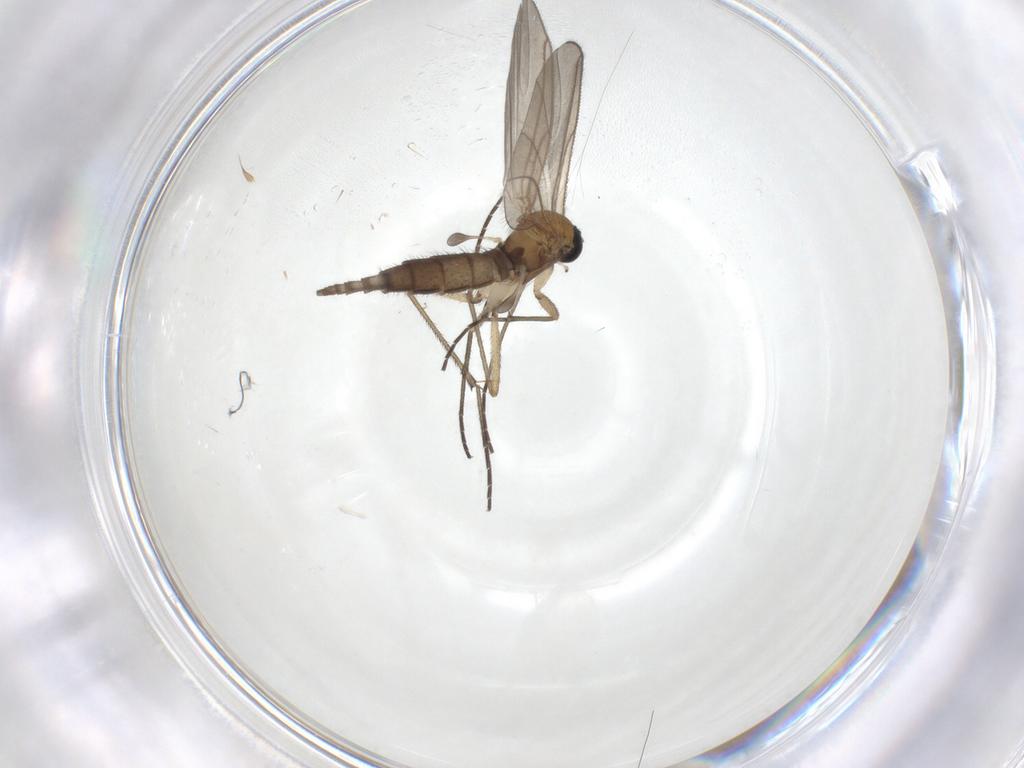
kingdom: Animalia
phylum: Arthropoda
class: Insecta
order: Diptera
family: Sciaridae
